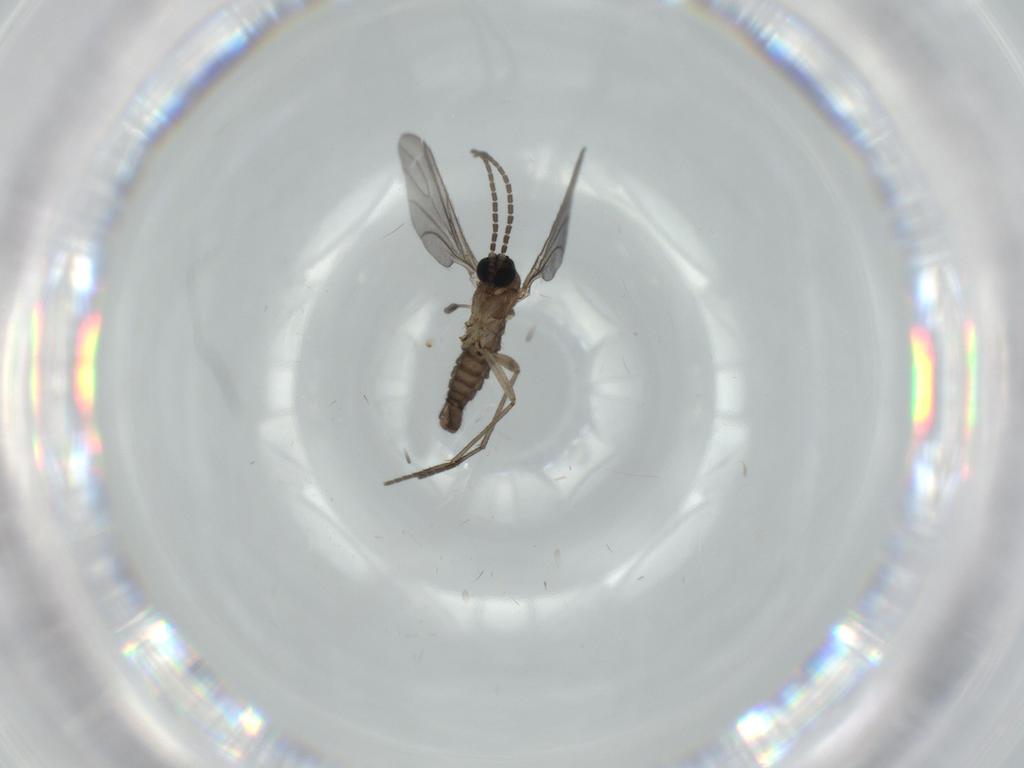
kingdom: Animalia
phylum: Arthropoda
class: Insecta
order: Diptera
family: Sciaridae
